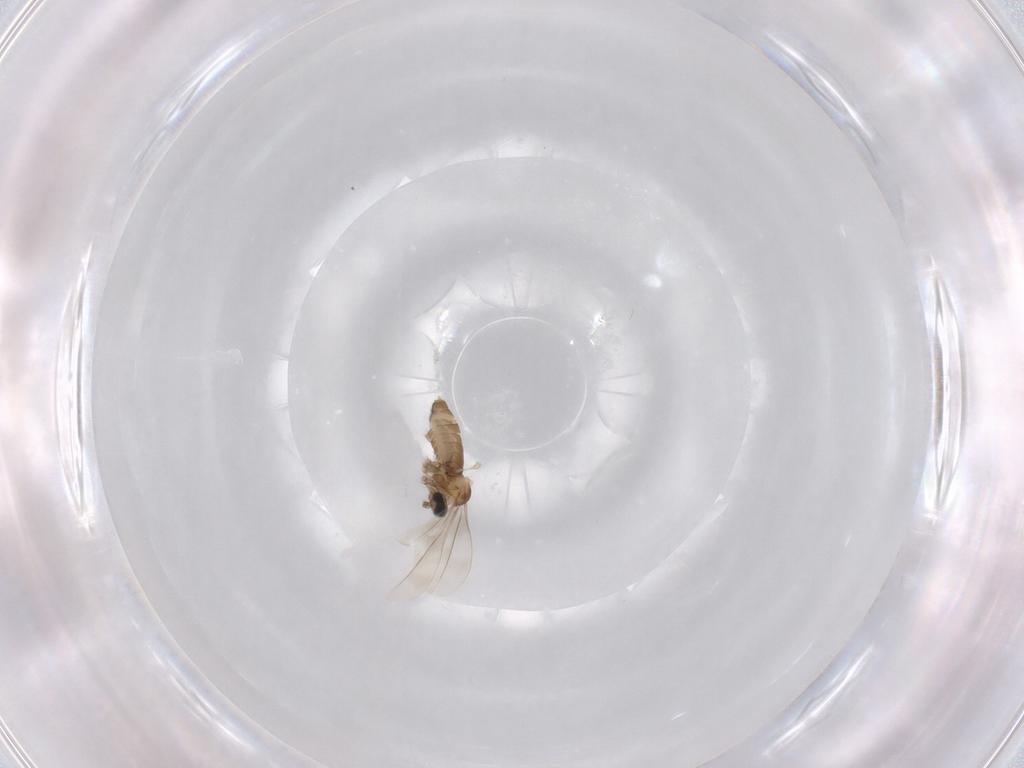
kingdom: Animalia
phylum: Arthropoda
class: Insecta
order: Diptera
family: Cecidomyiidae
